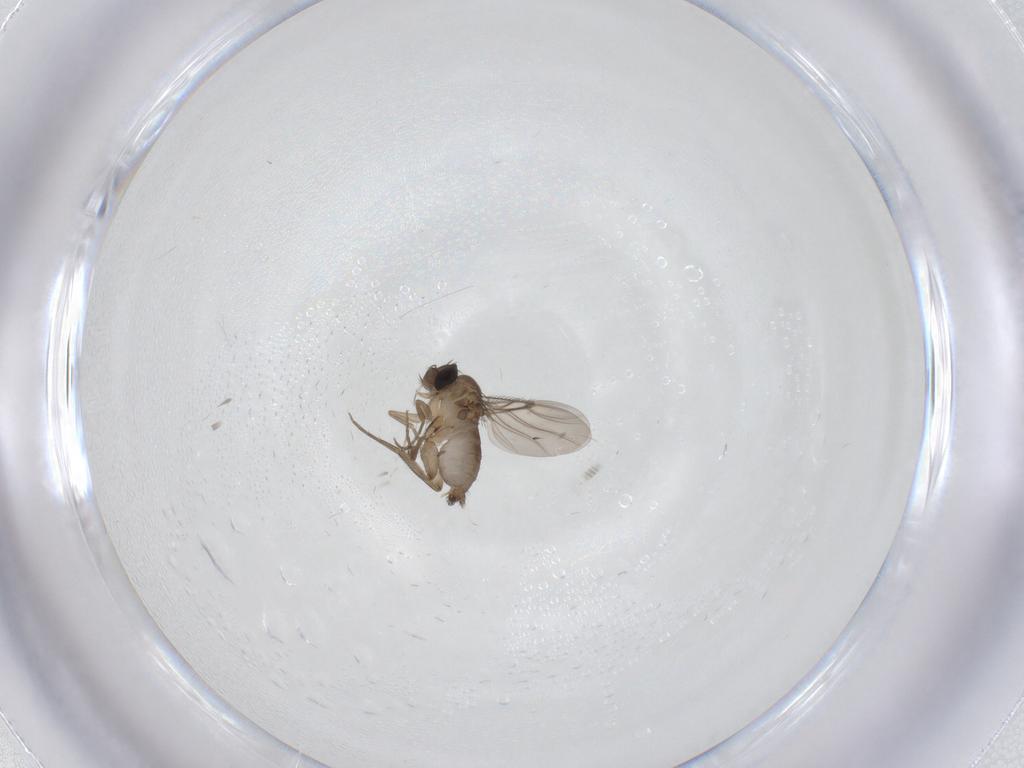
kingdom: Animalia
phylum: Arthropoda
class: Insecta
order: Diptera
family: Phoridae
